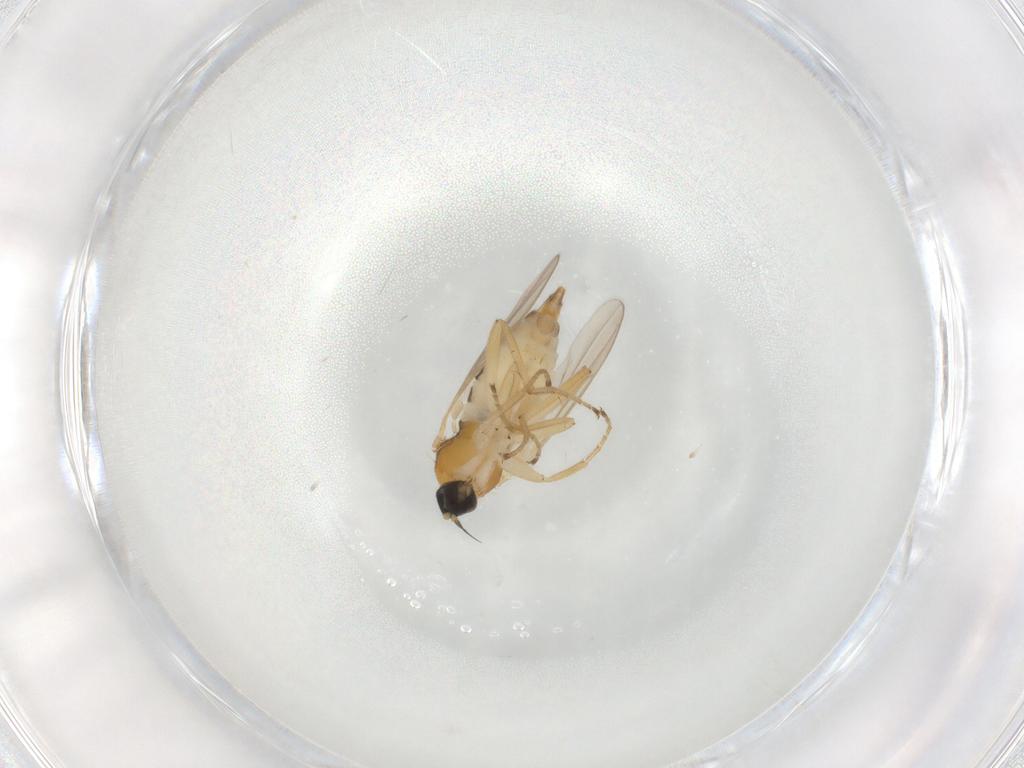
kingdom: Animalia
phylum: Arthropoda
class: Insecta
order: Diptera
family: Hybotidae
